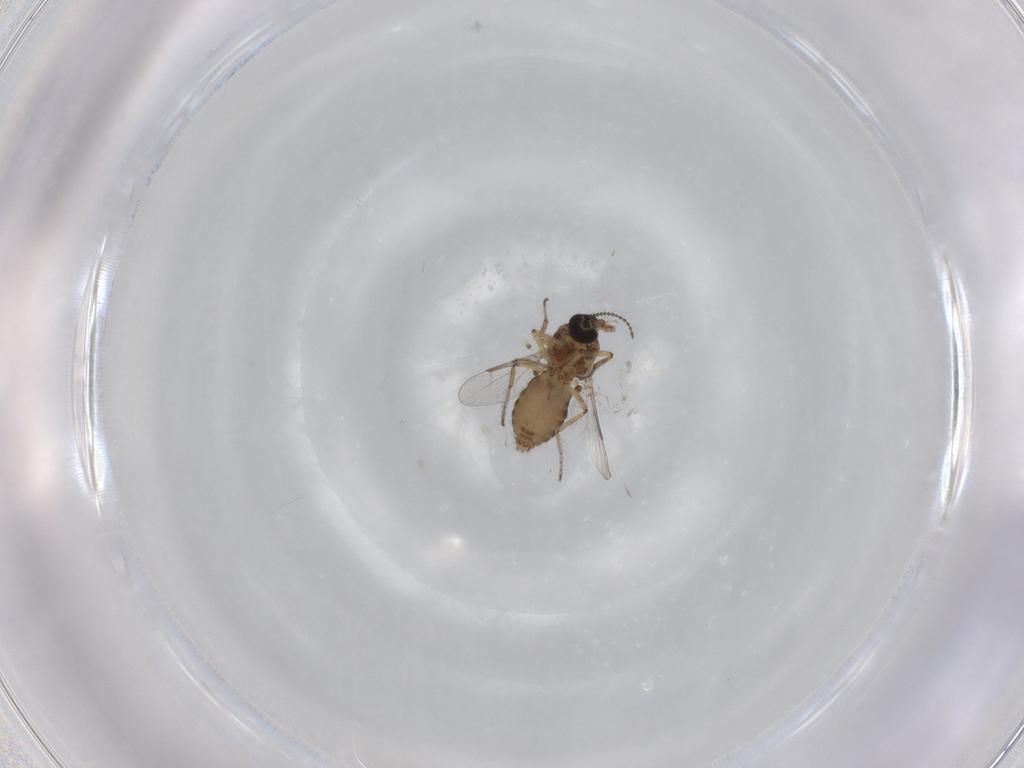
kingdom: Animalia
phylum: Arthropoda
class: Insecta
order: Diptera
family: Ceratopogonidae
